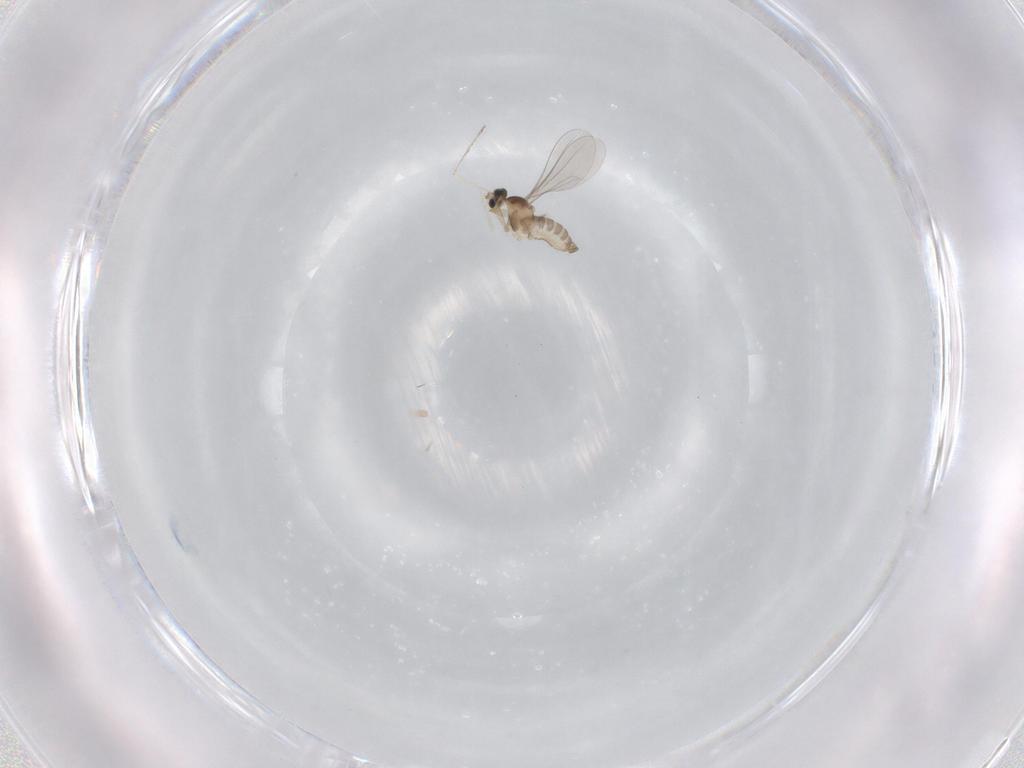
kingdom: Animalia
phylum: Arthropoda
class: Insecta
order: Diptera
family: Cecidomyiidae
